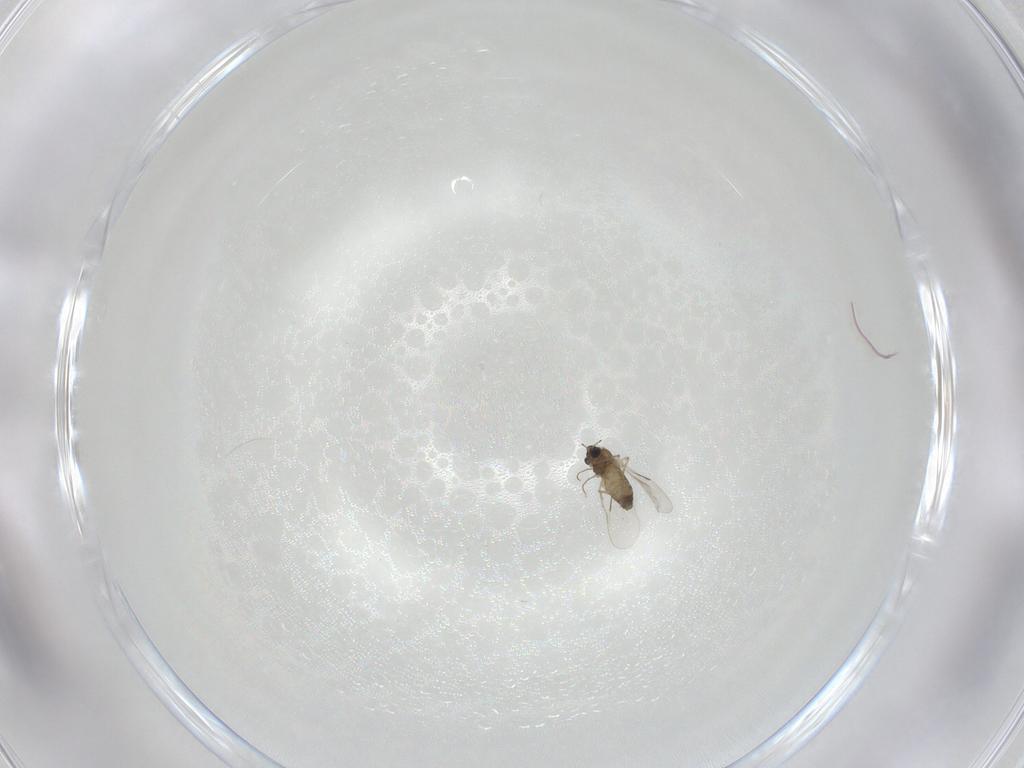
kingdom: Animalia
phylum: Arthropoda
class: Insecta
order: Diptera
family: Chironomidae
